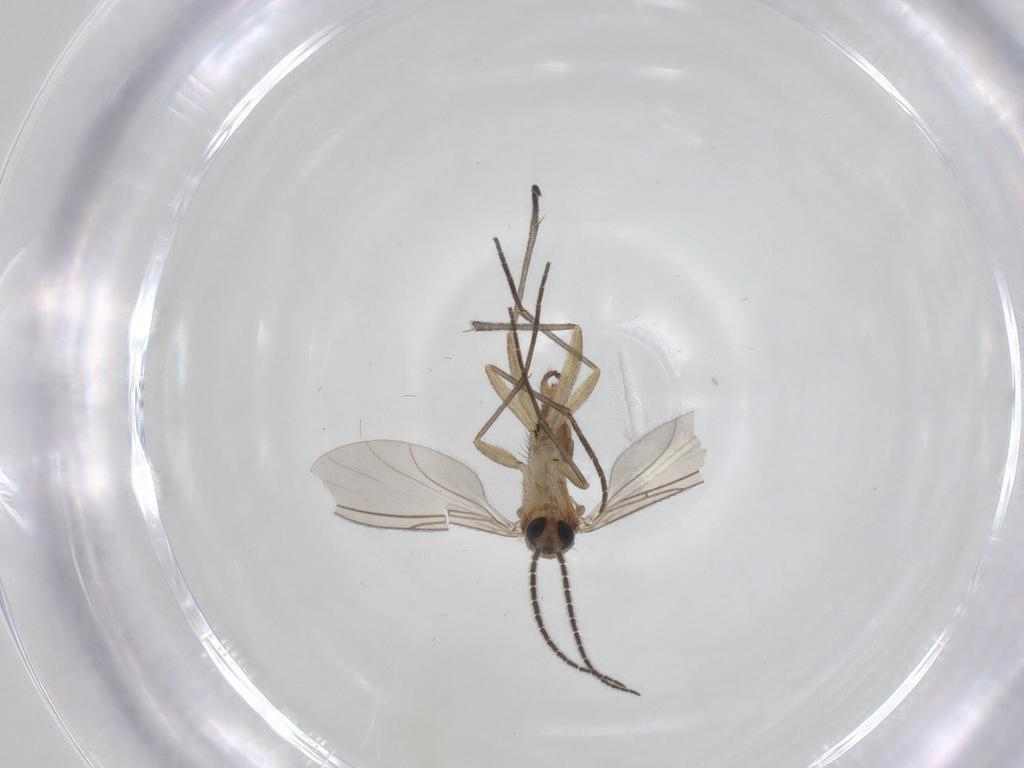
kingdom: Animalia
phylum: Arthropoda
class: Insecta
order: Diptera
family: Sciaridae
